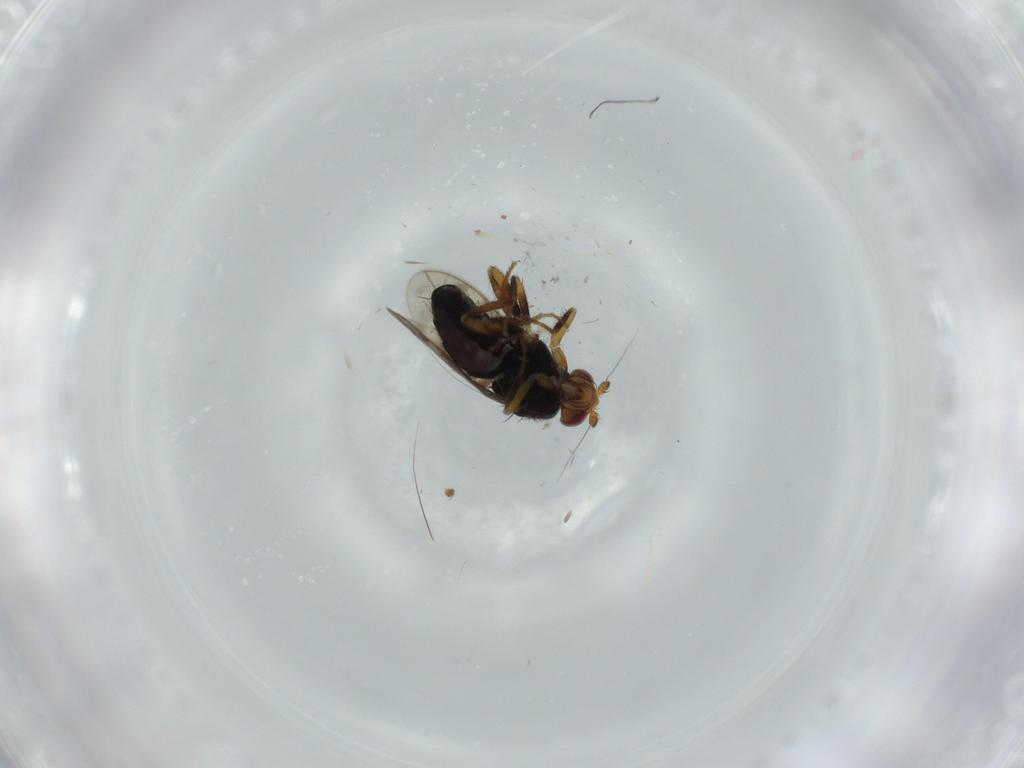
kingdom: Animalia
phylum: Arthropoda
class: Insecta
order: Diptera
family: Sphaeroceridae
